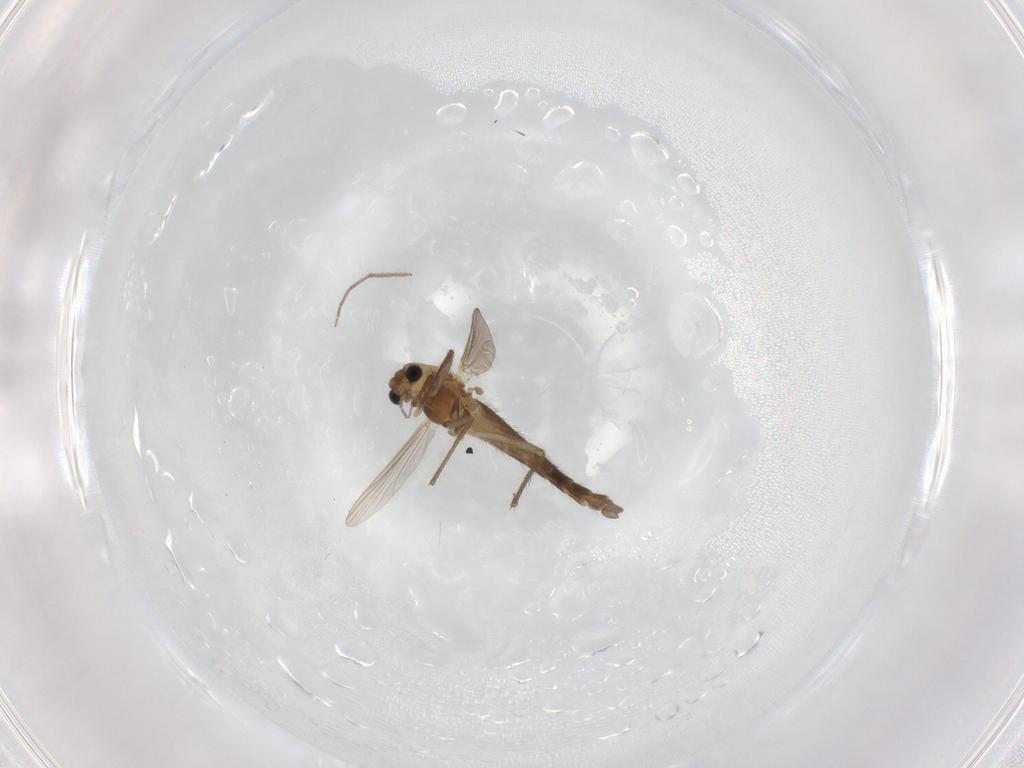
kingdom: Animalia
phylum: Arthropoda
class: Insecta
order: Diptera
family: Chironomidae
